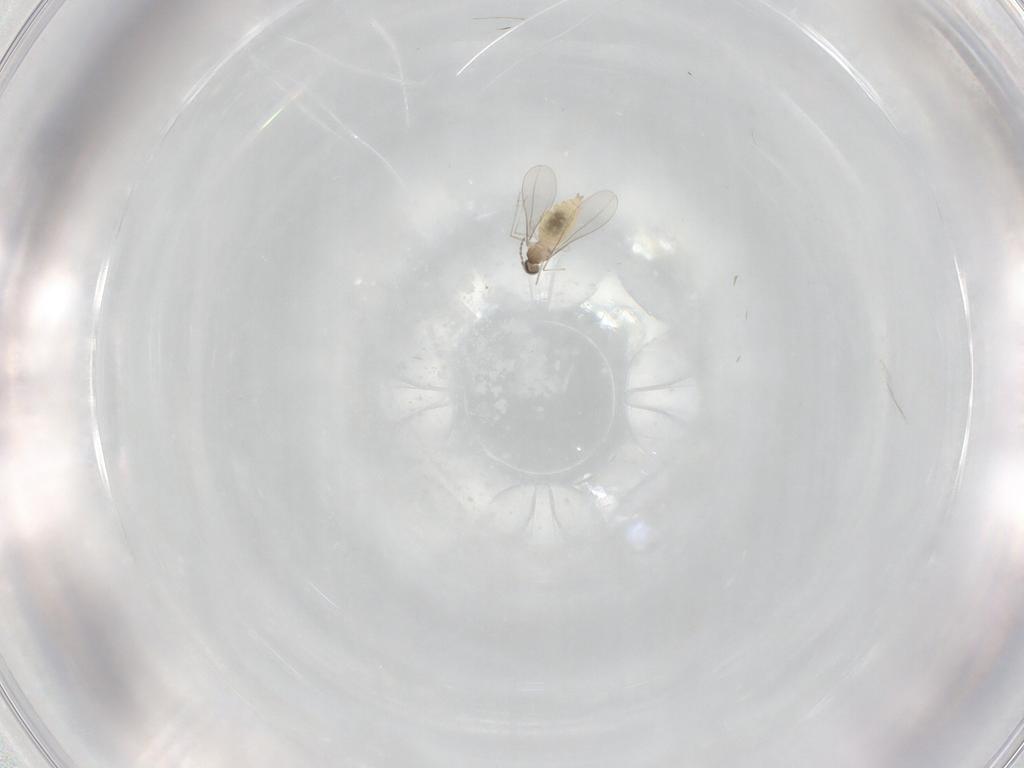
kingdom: Animalia
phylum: Arthropoda
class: Insecta
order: Diptera
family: Cecidomyiidae
